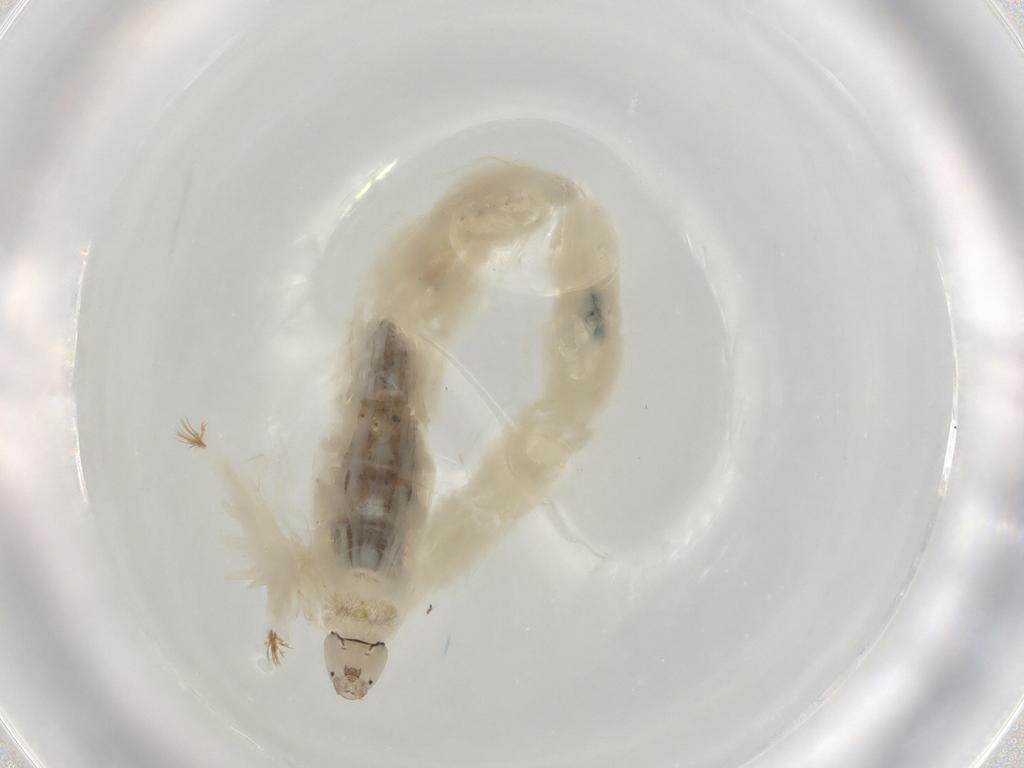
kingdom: Animalia
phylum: Arthropoda
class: Insecta
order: Diptera
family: Chironomidae
